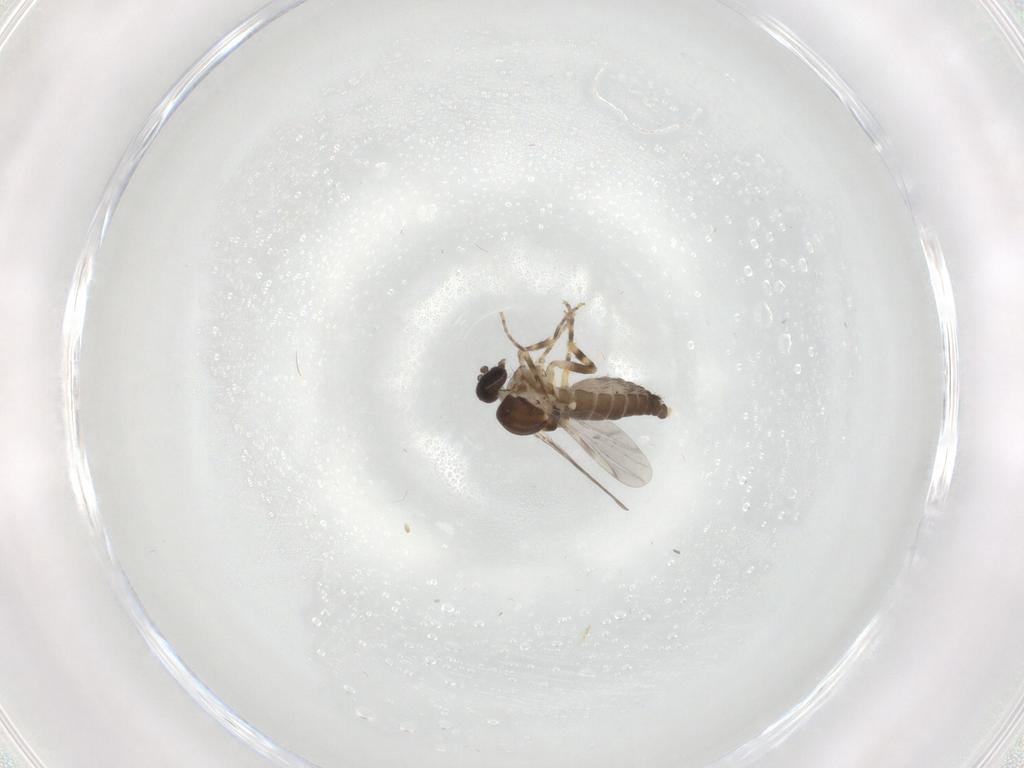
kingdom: Animalia
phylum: Arthropoda
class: Insecta
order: Diptera
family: Ceratopogonidae
